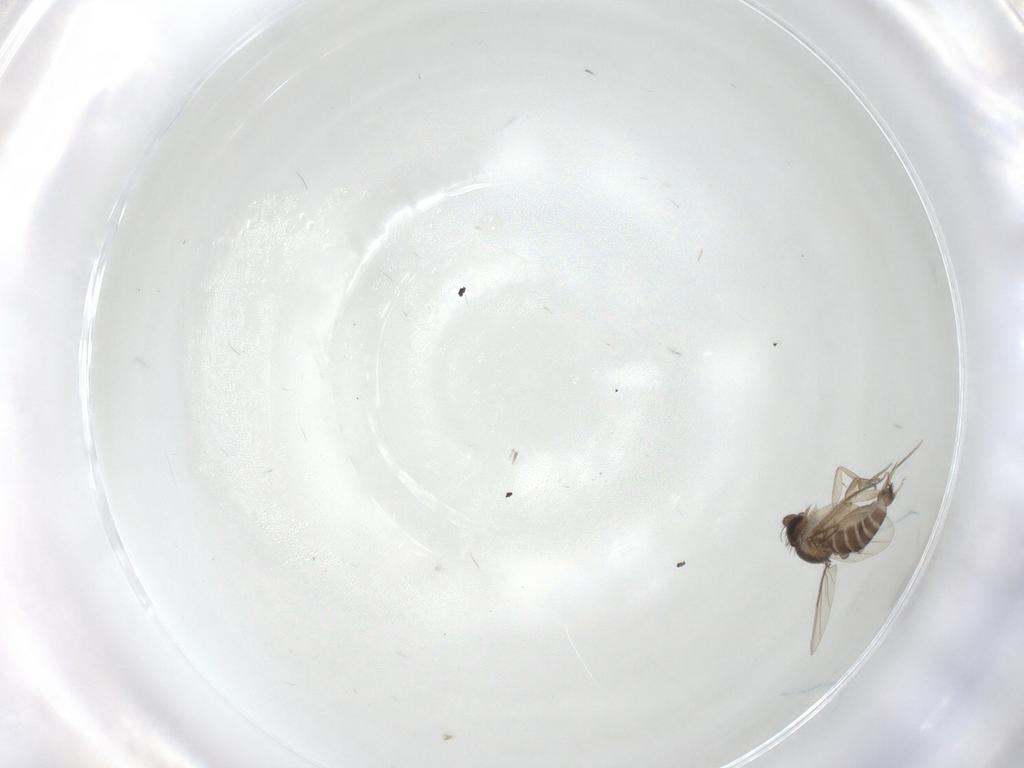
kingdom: Animalia
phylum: Arthropoda
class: Insecta
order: Diptera
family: Phoridae
